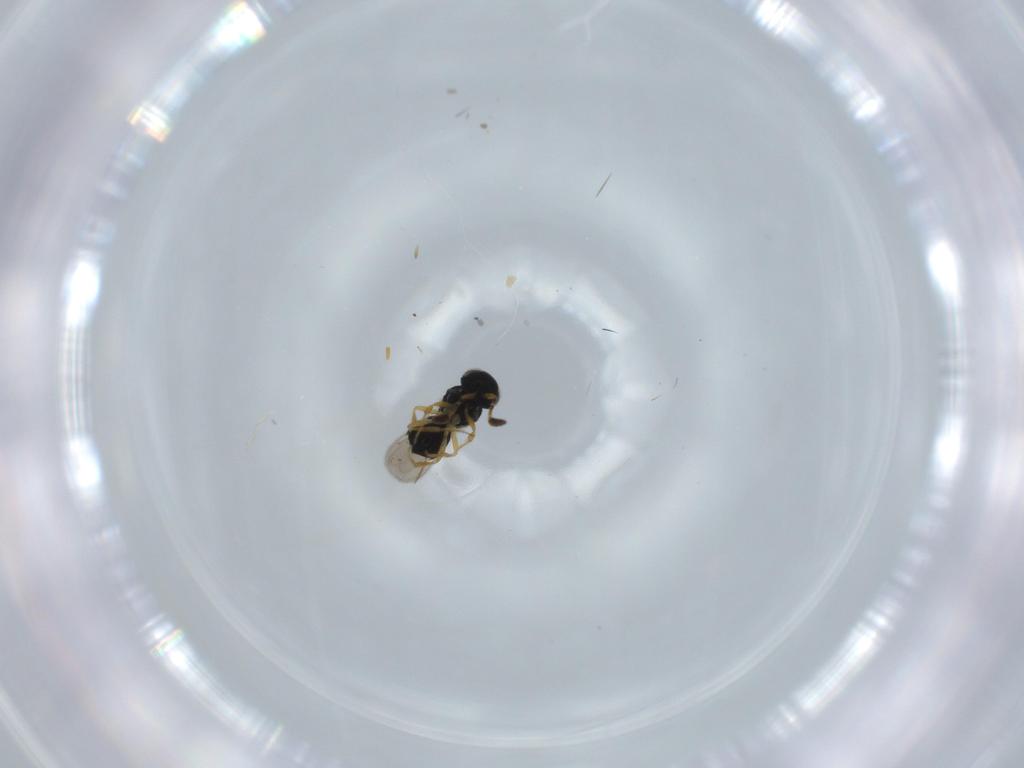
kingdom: Animalia
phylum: Arthropoda
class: Insecta
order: Hymenoptera
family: Scelionidae
